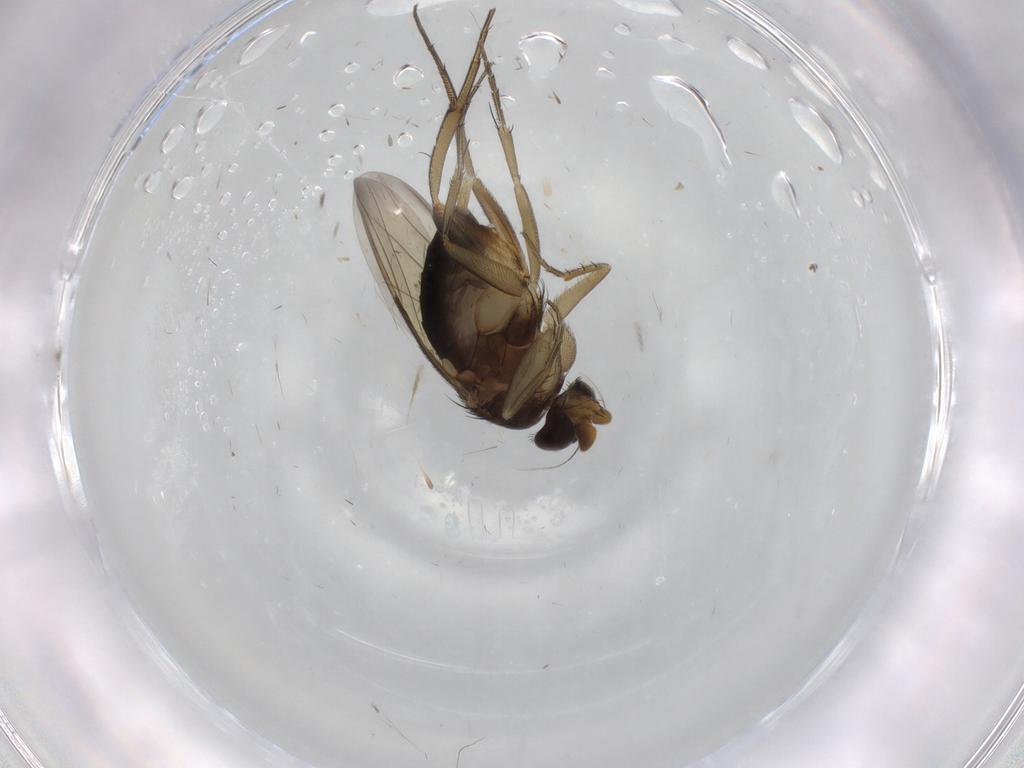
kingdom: Animalia
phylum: Arthropoda
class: Insecta
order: Diptera
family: Phoridae
